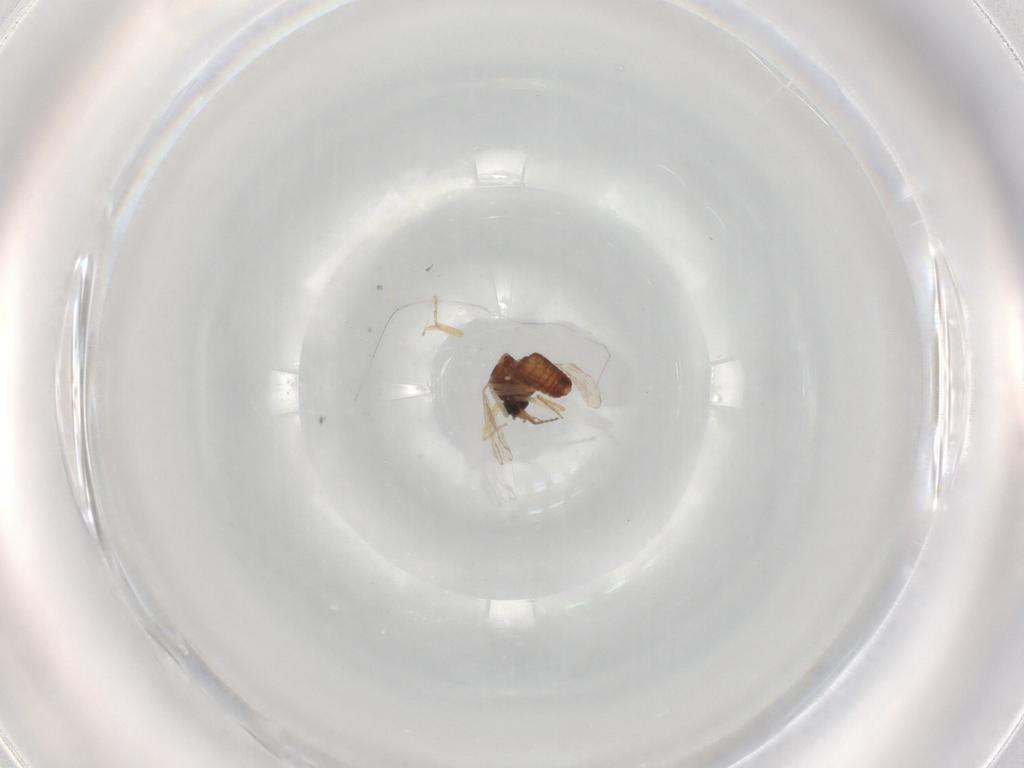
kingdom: Animalia
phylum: Arthropoda
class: Insecta
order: Diptera
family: Ceratopogonidae
